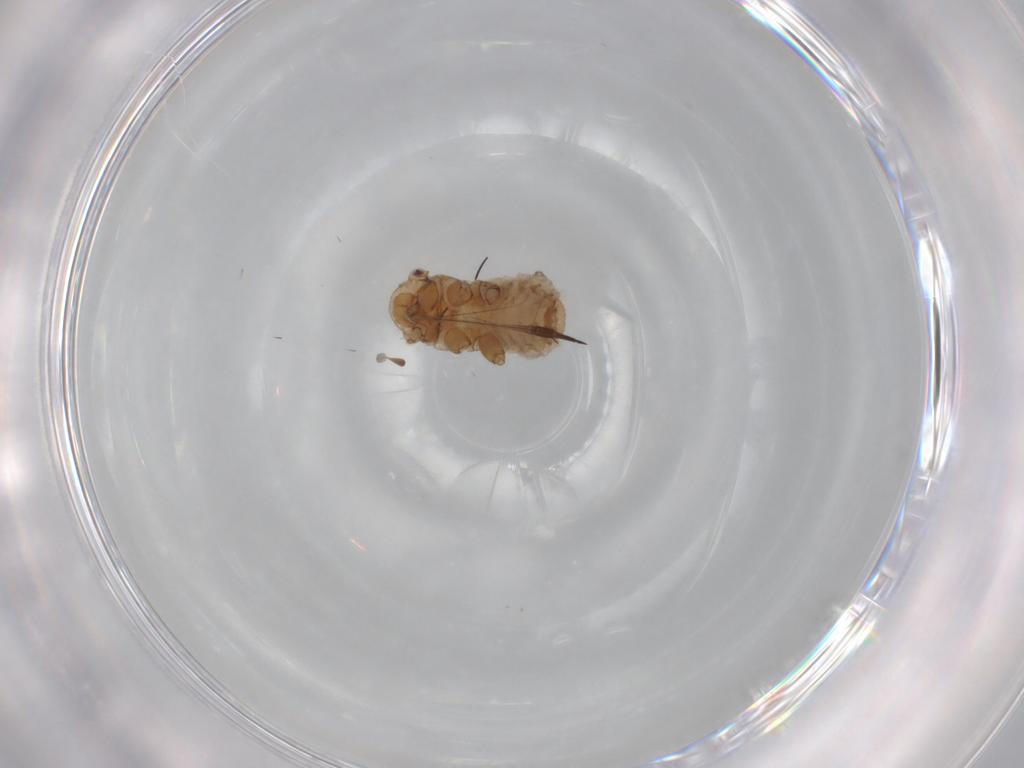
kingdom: Animalia
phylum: Arthropoda
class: Insecta
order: Hemiptera
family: Aphididae
